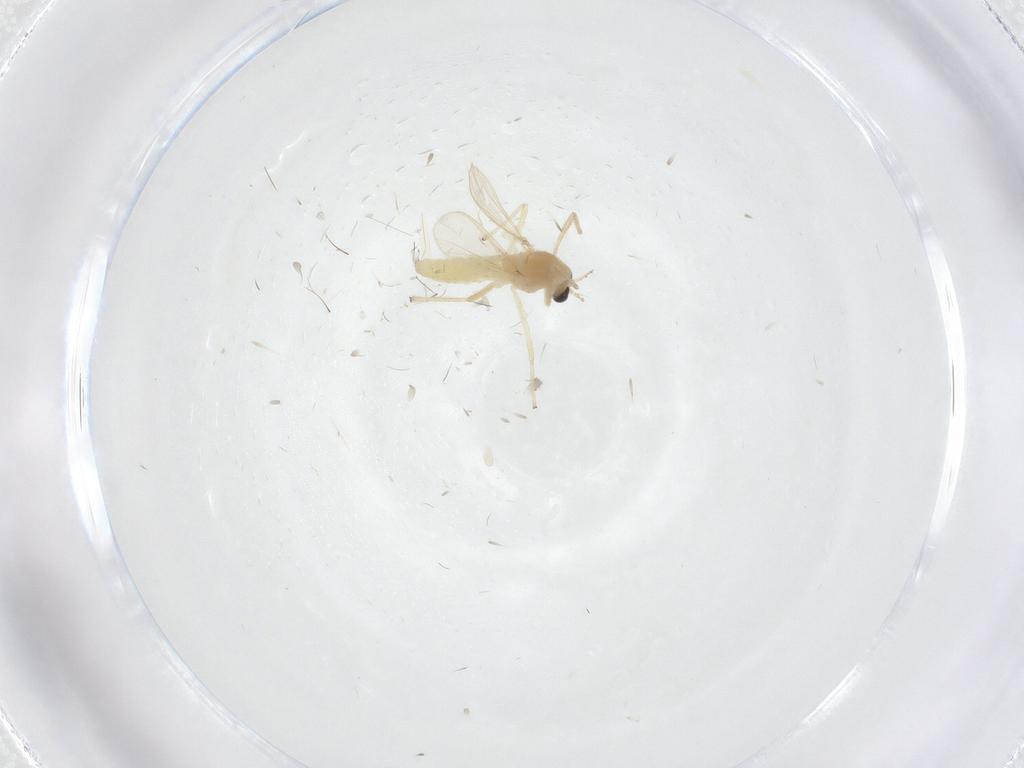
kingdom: Animalia
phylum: Arthropoda
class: Insecta
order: Diptera
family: Chironomidae
